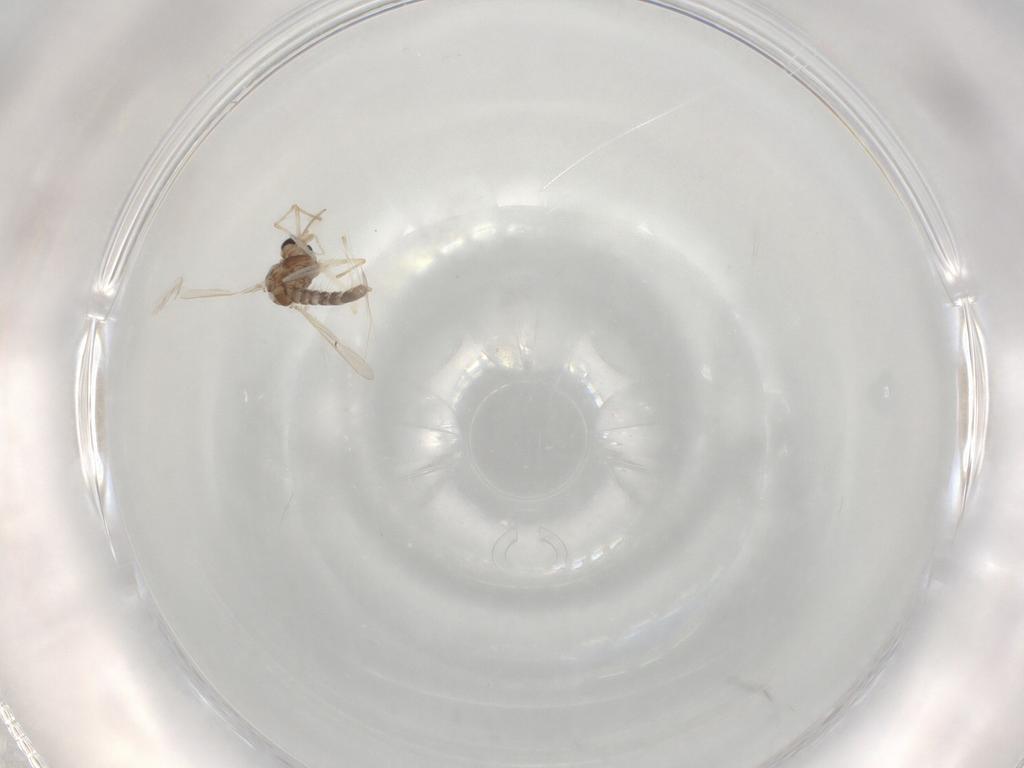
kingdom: Animalia
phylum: Arthropoda
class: Insecta
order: Diptera
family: Chironomidae
